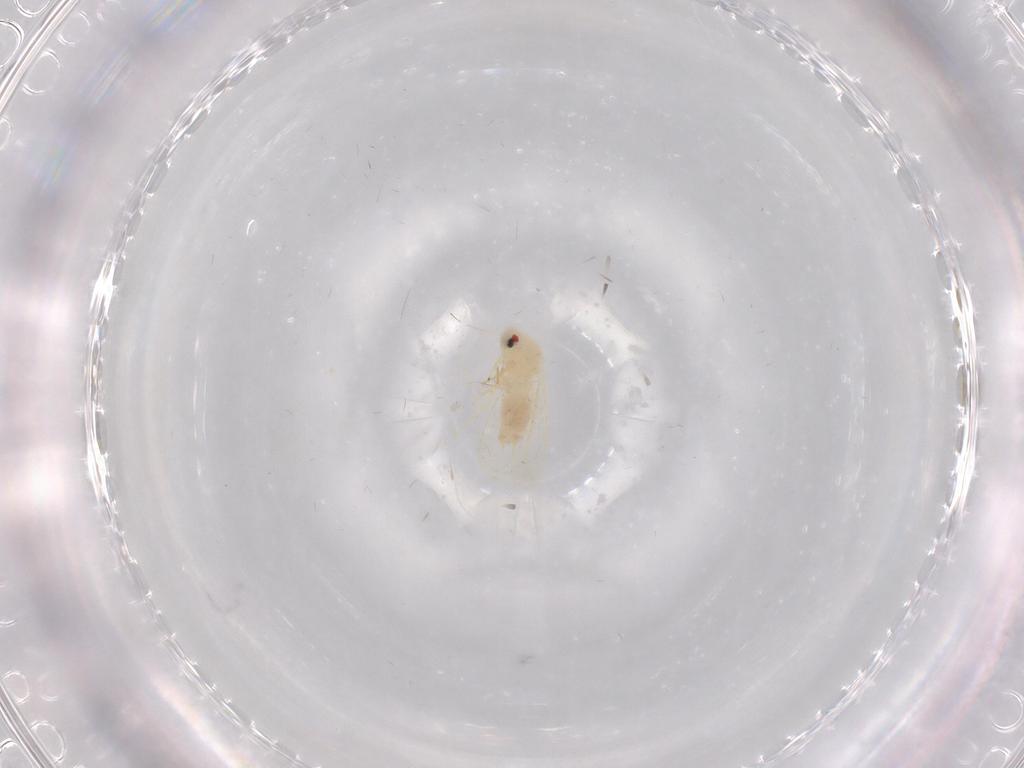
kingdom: Animalia
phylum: Arthropoda
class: Insecta
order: Hemiptera
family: Aleyrodidae
